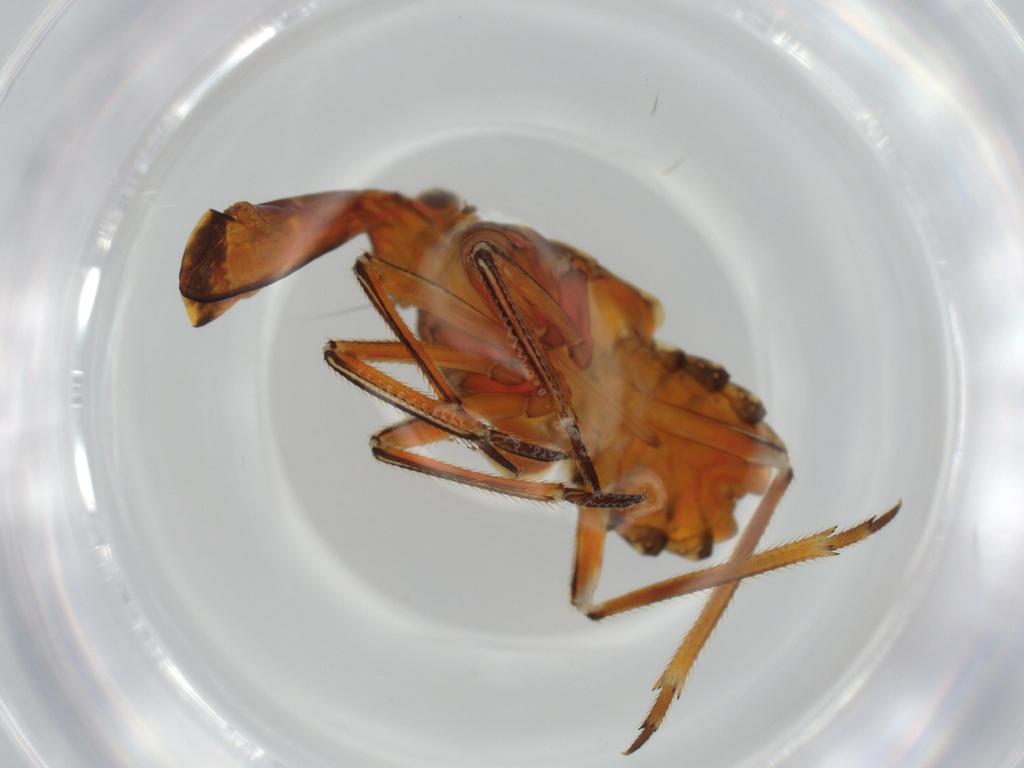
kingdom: Animalia
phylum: Arthropoda
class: Insecta
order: Hemiptera
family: Fulgoridae
